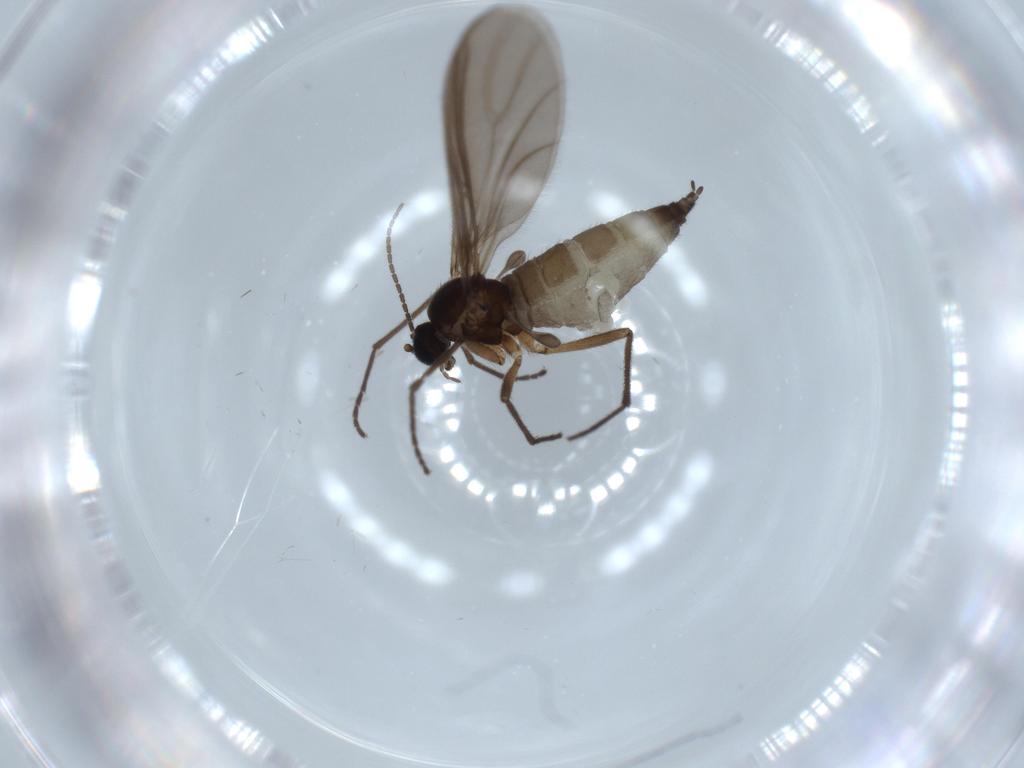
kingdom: Animalia
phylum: Arthropoda
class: Insecta
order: Diptera
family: Sciaridae
